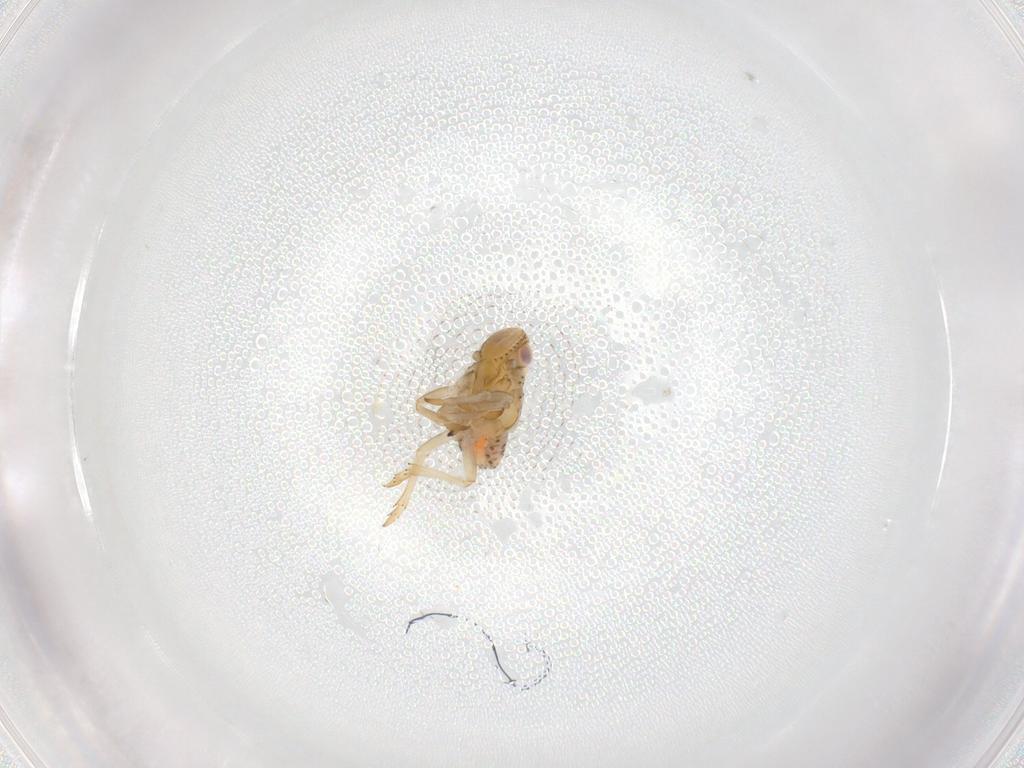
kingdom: Animalia
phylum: Arthropoda
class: Insecta
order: Hemiptera
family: Tropiduchidae
